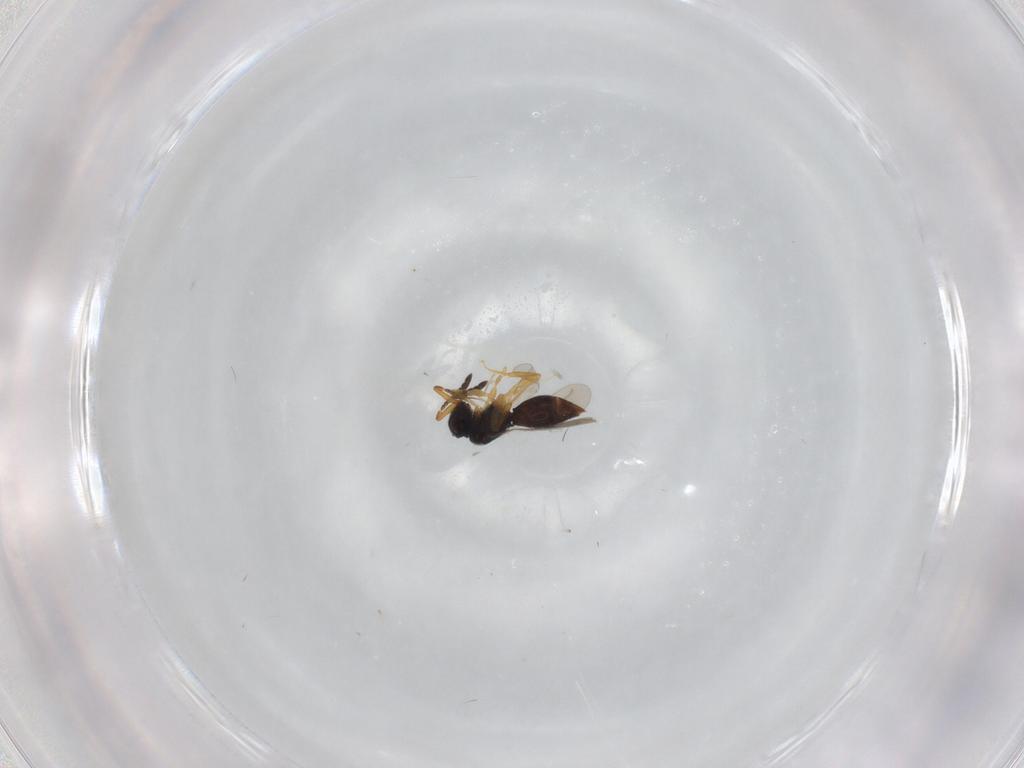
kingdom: Animalia
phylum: Arthropoda
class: Insecta
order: Hymenoptera
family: Ceraphronidae
